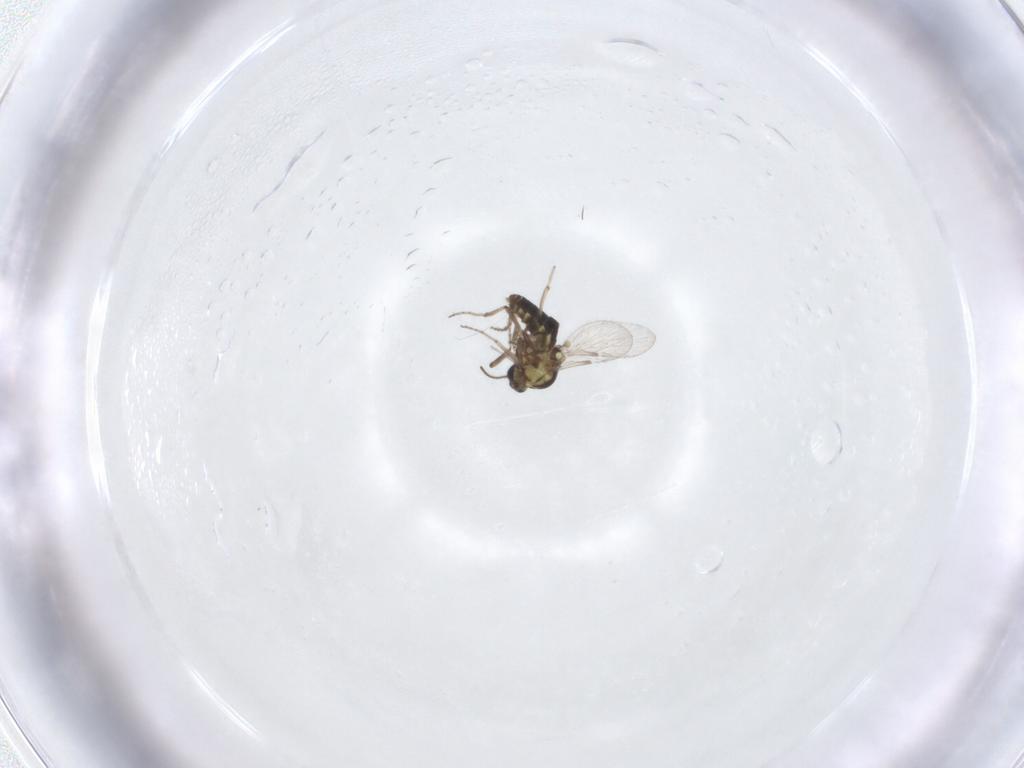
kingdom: Animalia
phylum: Arthropoda
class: Insecta
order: Diptera
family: Ceratopogonidae
